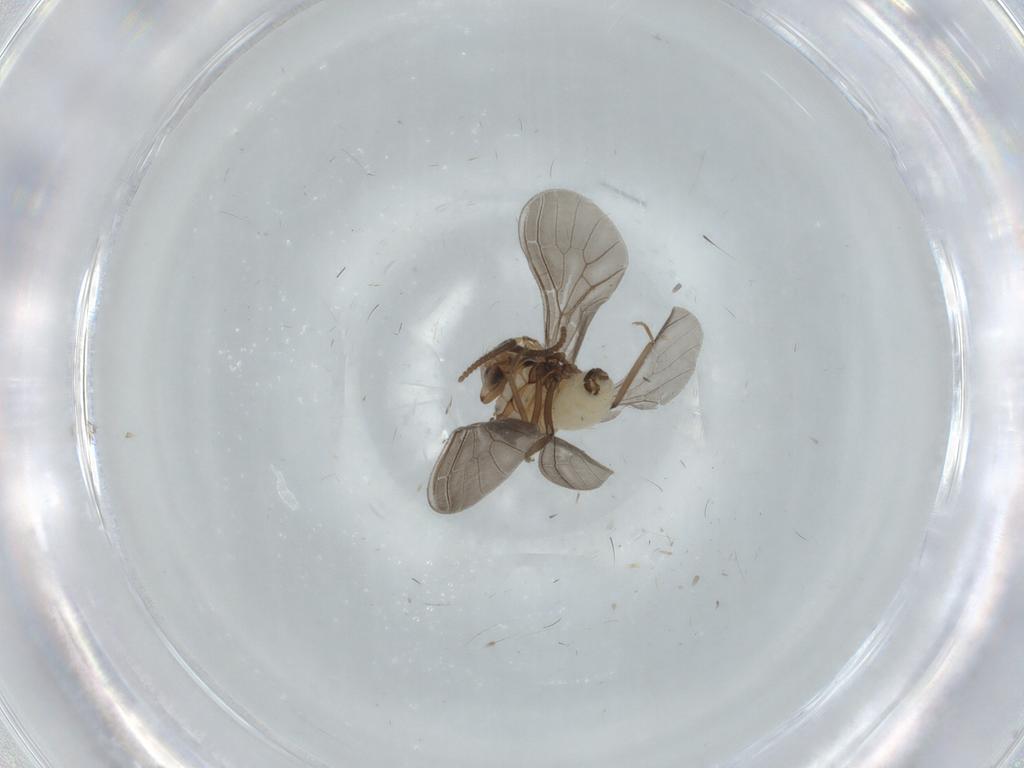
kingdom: Animalia
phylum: Arthropoda
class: Insecta
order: Neuroptera
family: Coniopterygidae
